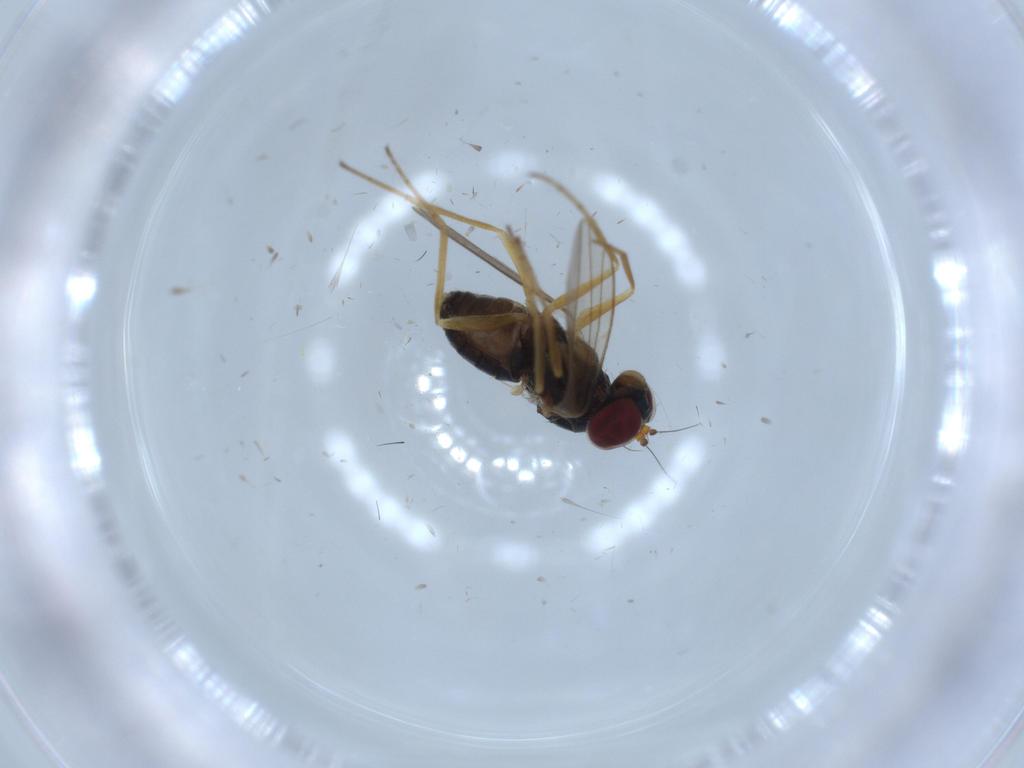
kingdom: Animalia
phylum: Arthropoda
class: Insecta
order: Diptera
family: Dolichopodidae
